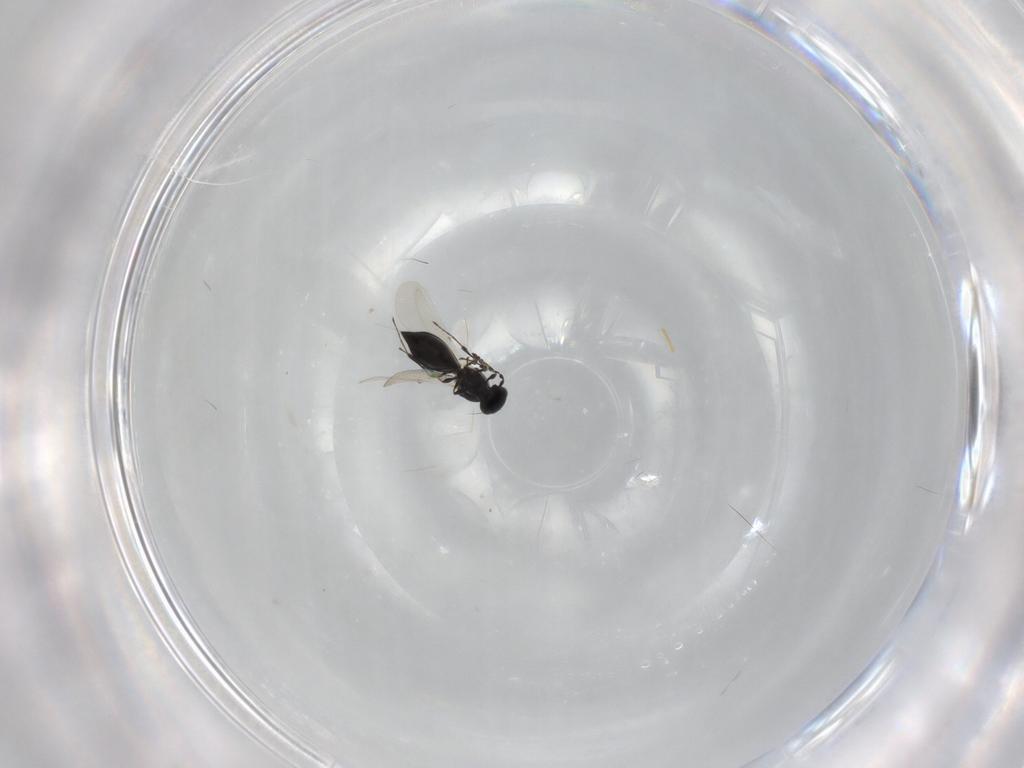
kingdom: Animalia
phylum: Arthropoda
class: Insecta
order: Hymenoptera
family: Platygastridae
